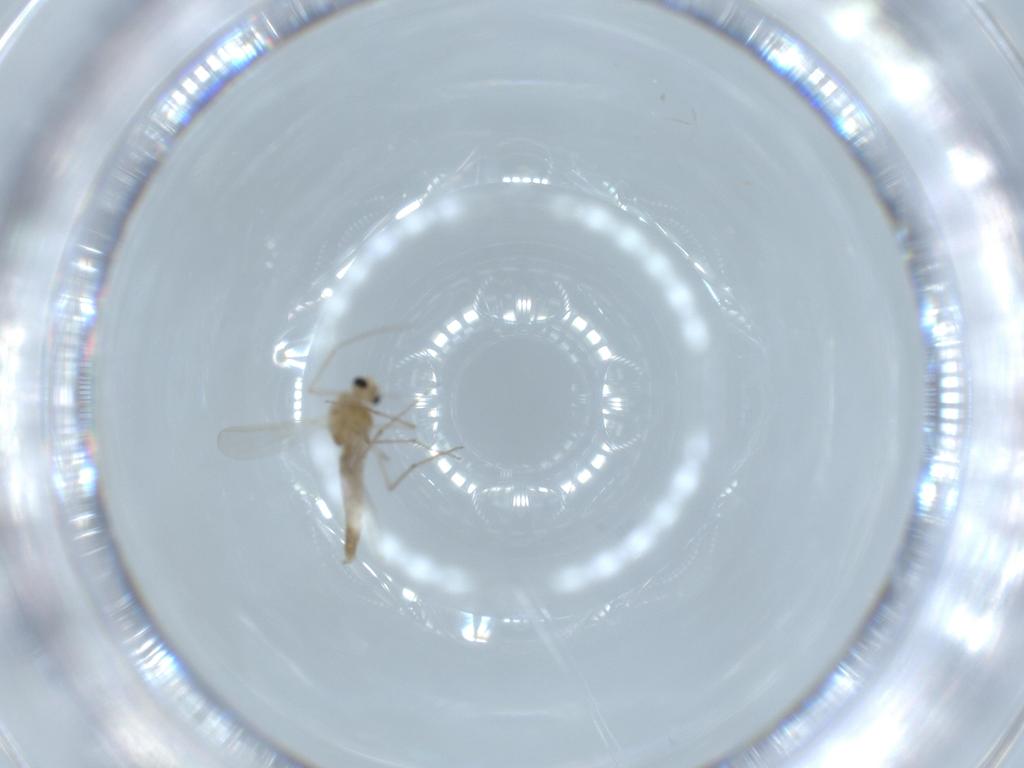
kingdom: Animalia
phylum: Arthropoda
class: Insecta
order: Diptera
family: Chironomidae
